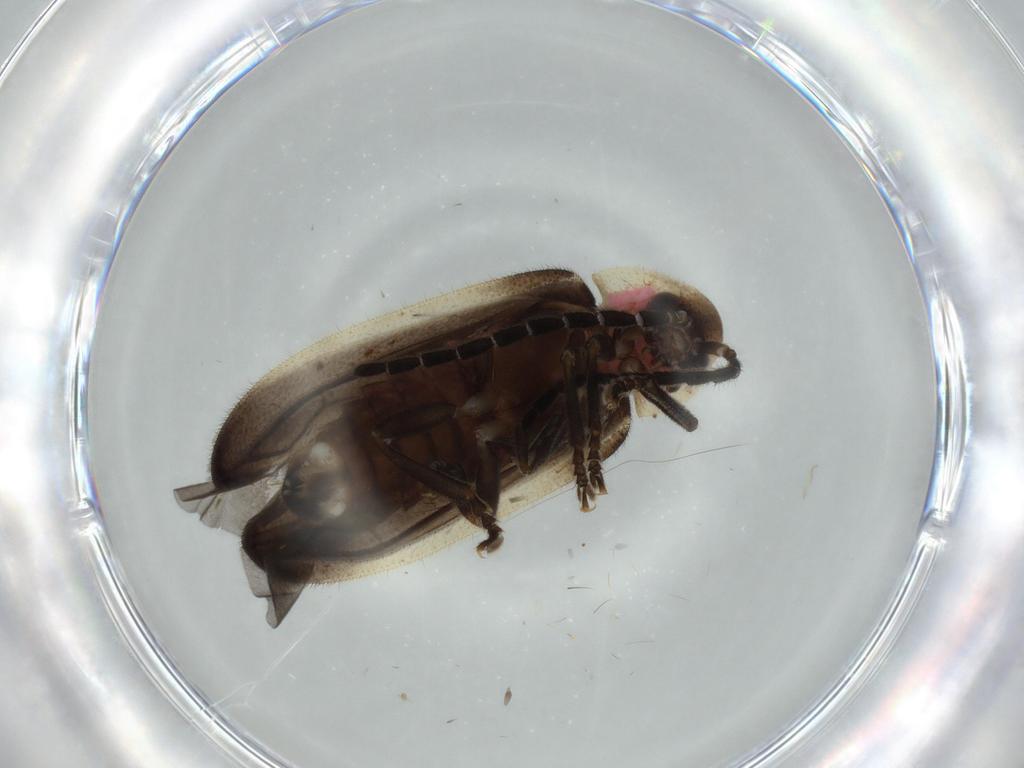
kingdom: Animalia
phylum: Arthropoda
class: Insecta
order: Coleoptera
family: Lampyridae
